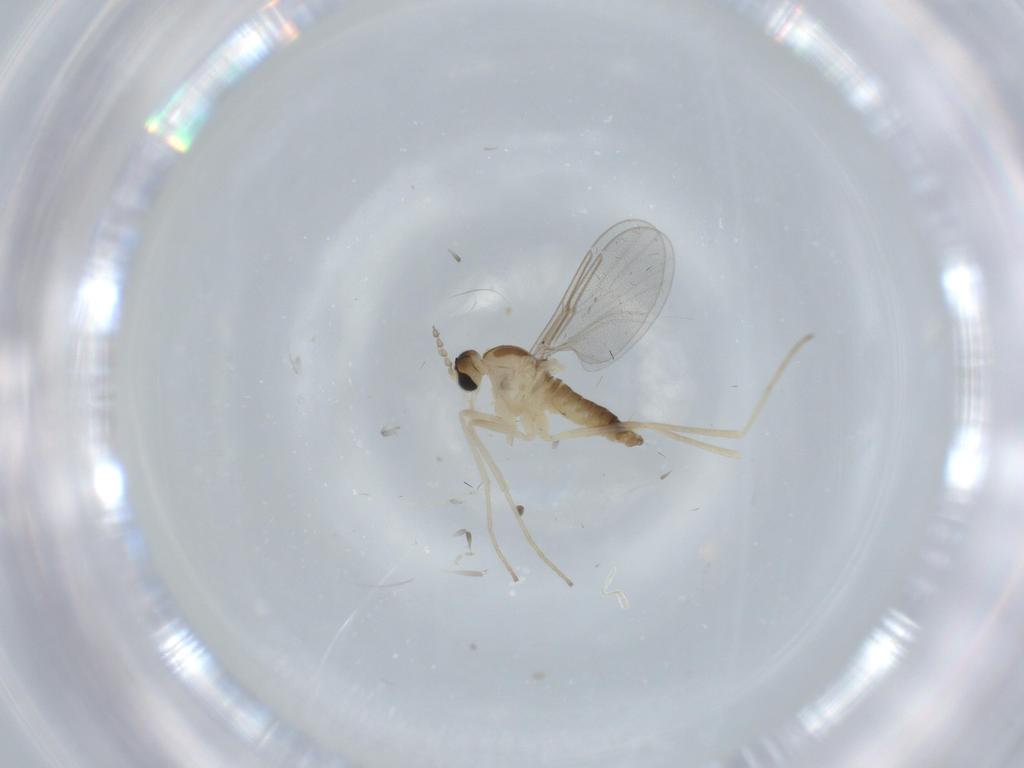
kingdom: Animalia
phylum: Arthropoda
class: Insecta
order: Diptera
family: Cecidomyiidae
